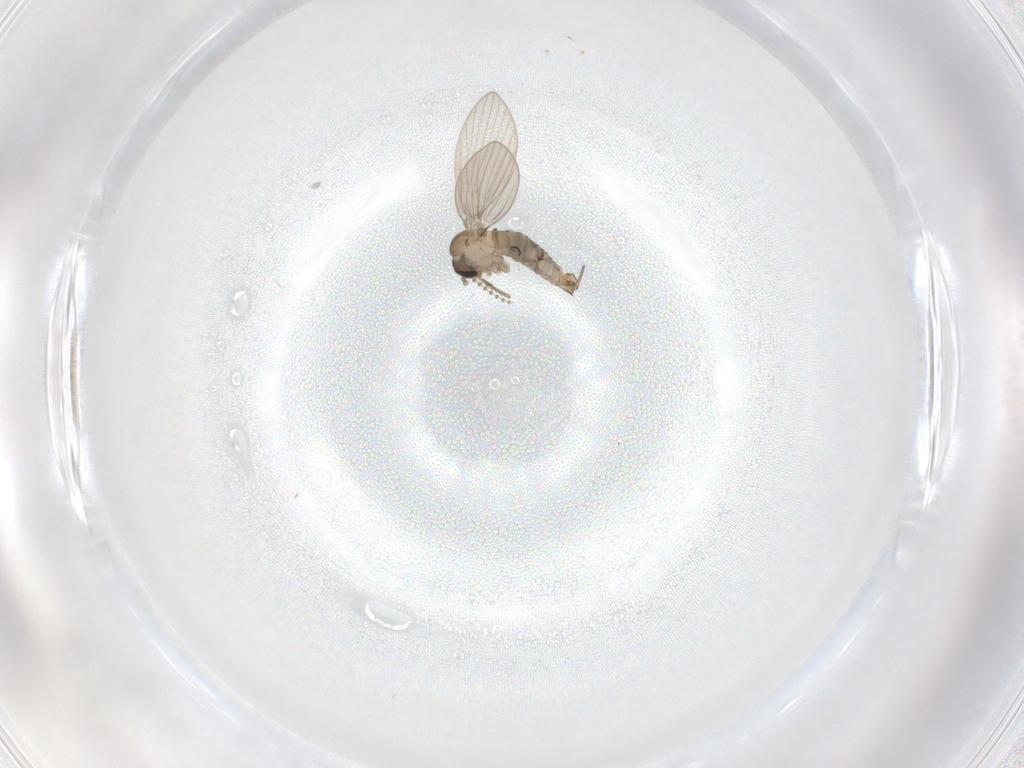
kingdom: Animalia
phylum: Arthropoda
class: Insecta
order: Diptera
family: Psychodidae
